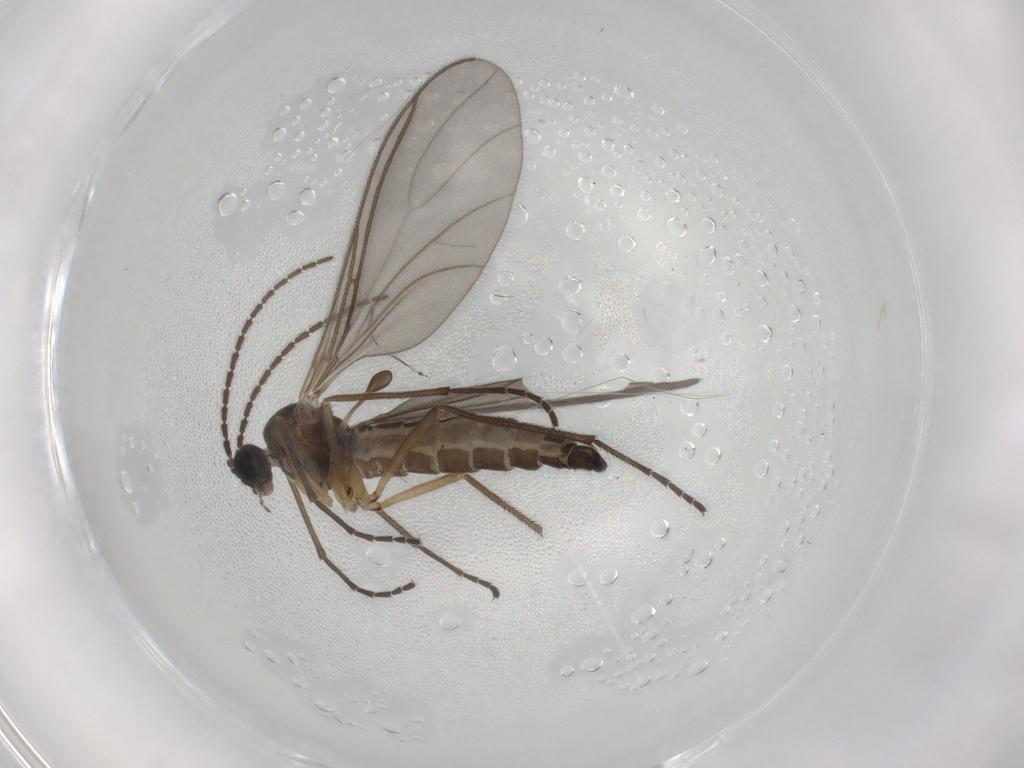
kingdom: Animalia
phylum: Arthropoda
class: Insecta
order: Diptera
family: Sciaridae
